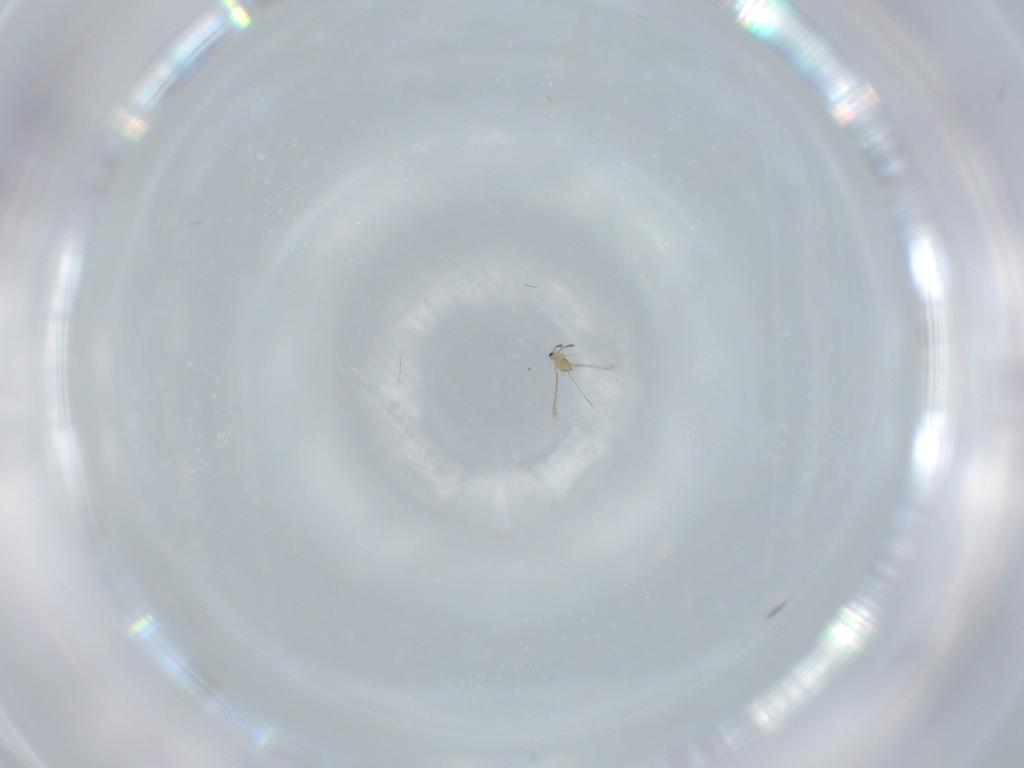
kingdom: Animalia
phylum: Arthropoda
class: Insecta
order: Hymenoptera
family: Mymaridae
